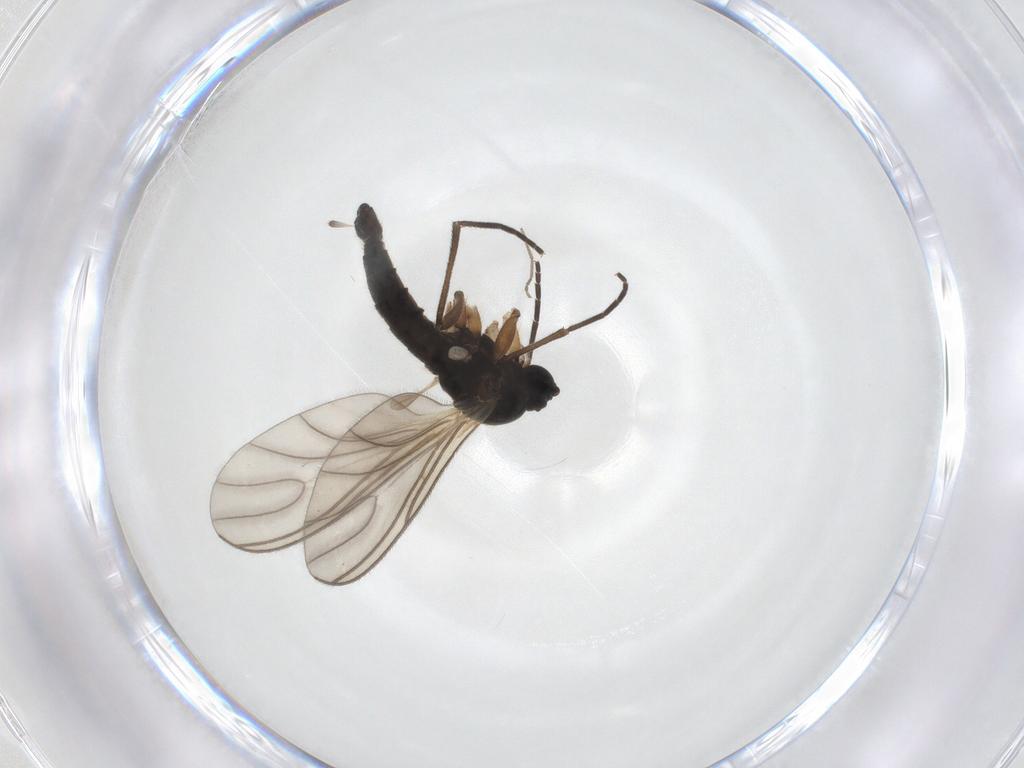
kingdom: Animalia
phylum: Arthropoda
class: Insecta
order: Diptera
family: Sciaridae
